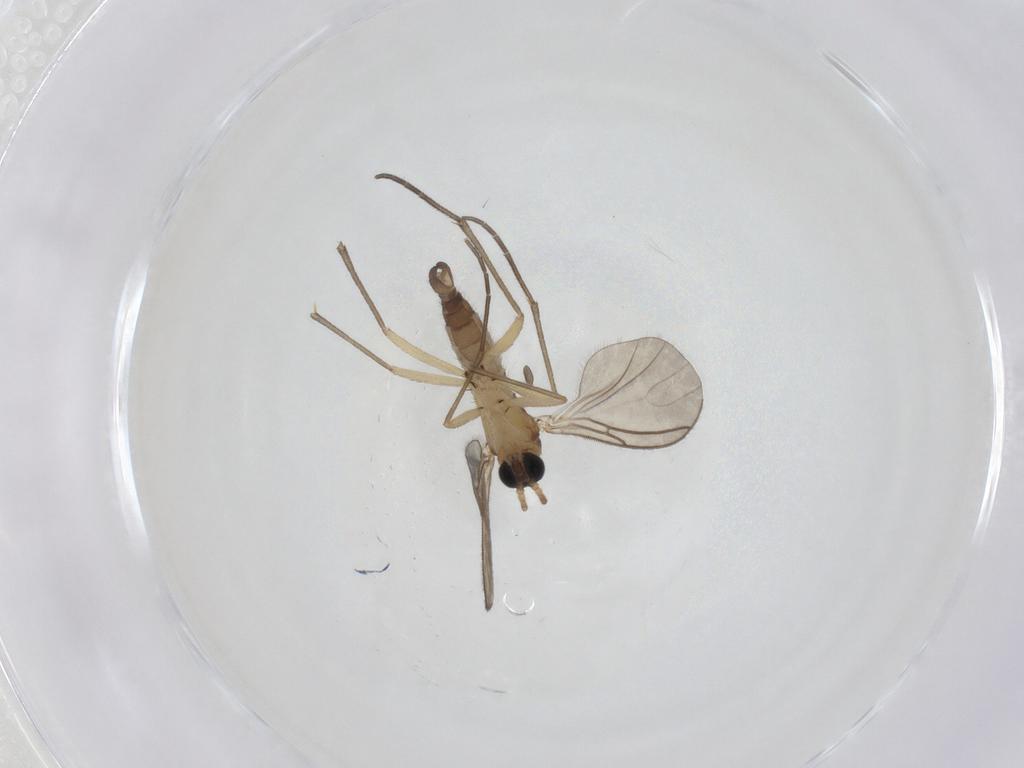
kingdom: Animalia
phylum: Arthropoda
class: Insecta
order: Diptera
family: Sciaridae
